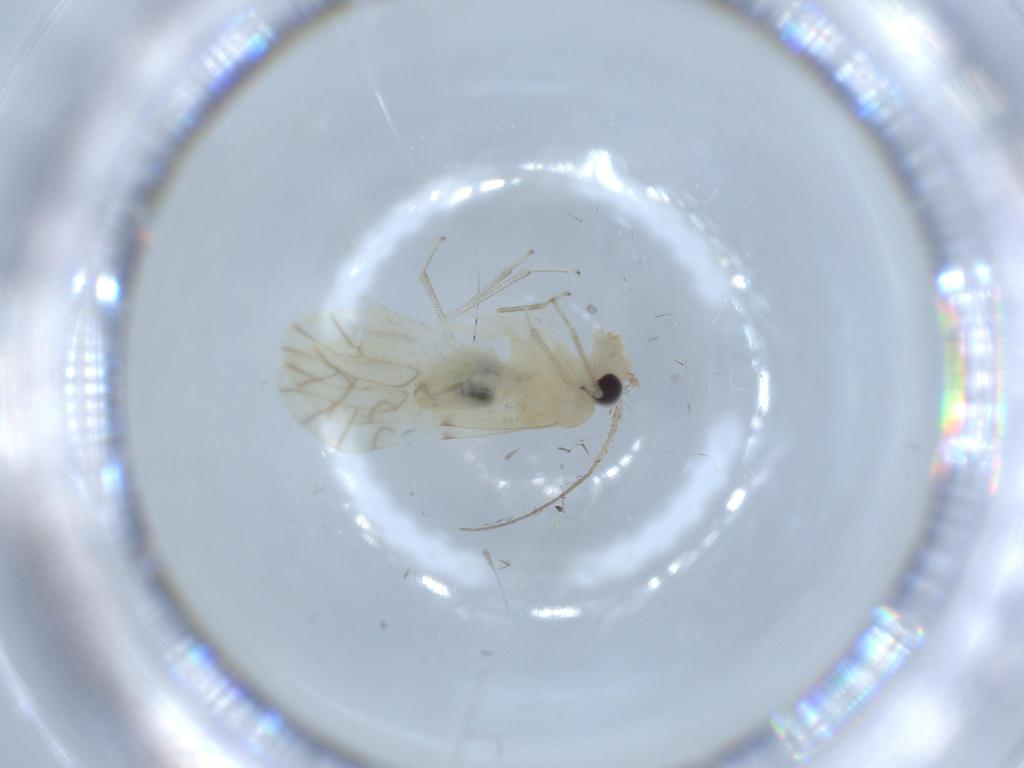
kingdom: Animalia
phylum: Arthropoda
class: Insecta
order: Psocodea
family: Caeciliusidae
